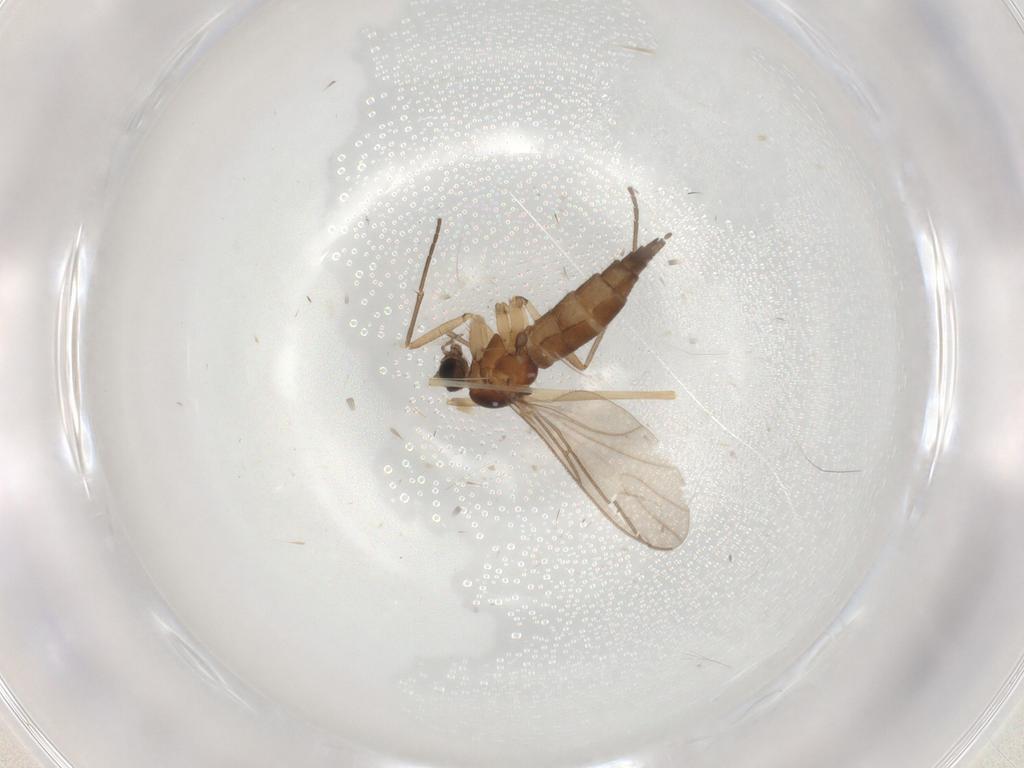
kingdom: Animalia
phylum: Arthropoda
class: Insecta
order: Diptera
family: Cecidomyiidae
